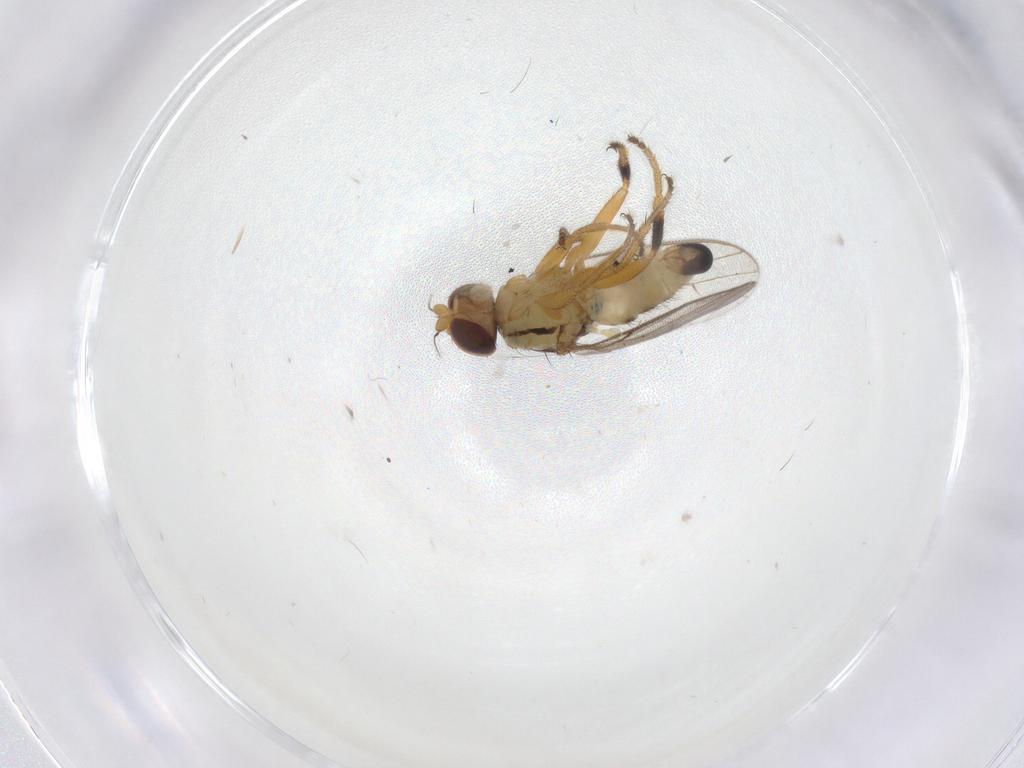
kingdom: Animalia
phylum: Arthropoda
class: Insecta
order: Diptera
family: Chloropidae
